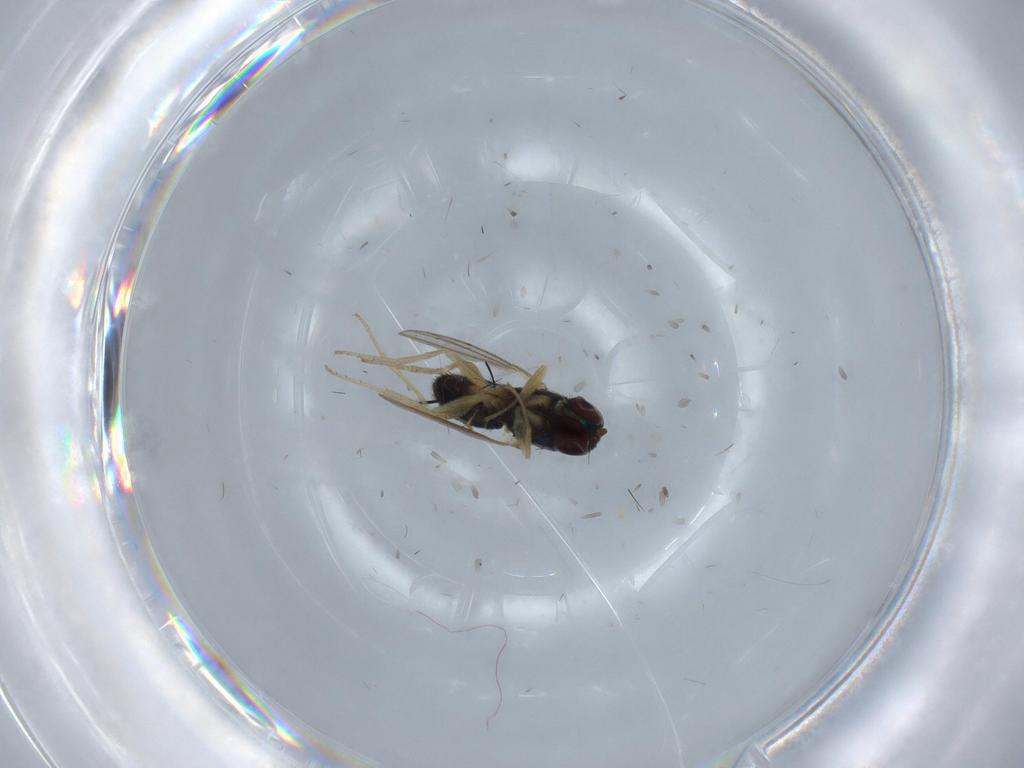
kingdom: Animalia
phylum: Arthropoda
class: Insecta
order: Diptera
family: Dolichopodidae
